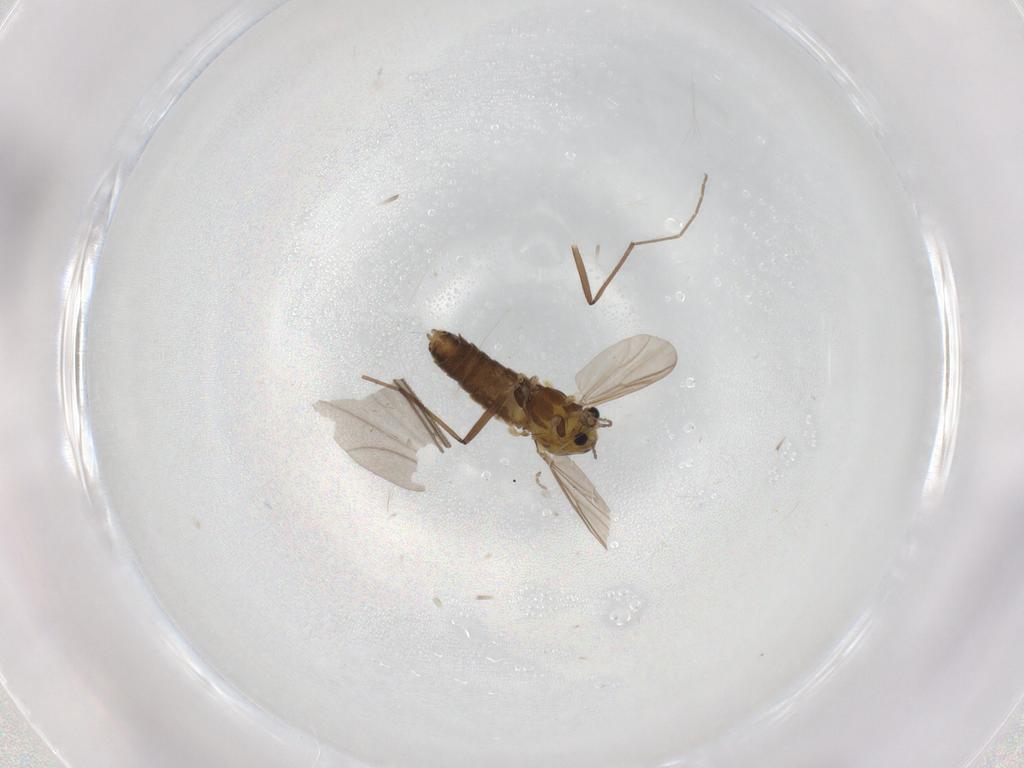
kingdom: Animalia
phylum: Arthropoda
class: Insecta
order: Diptera
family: Chironomidae
